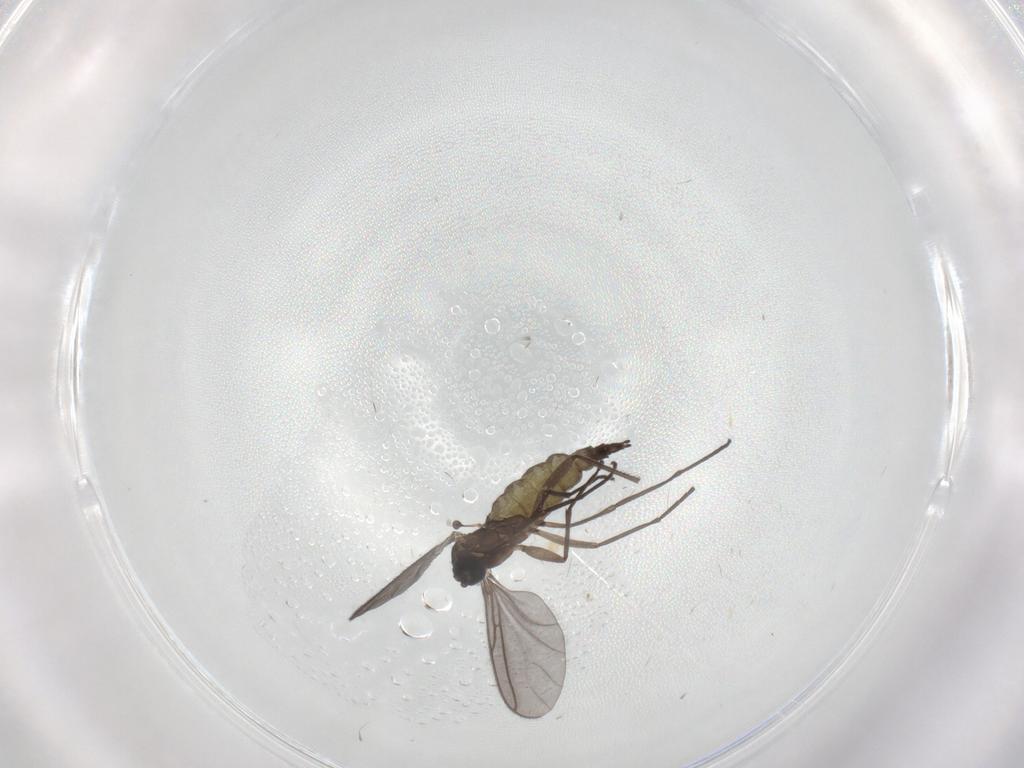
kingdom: Animalia
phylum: Arthropoda
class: Insecta
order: Diptera
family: Sciaridae
